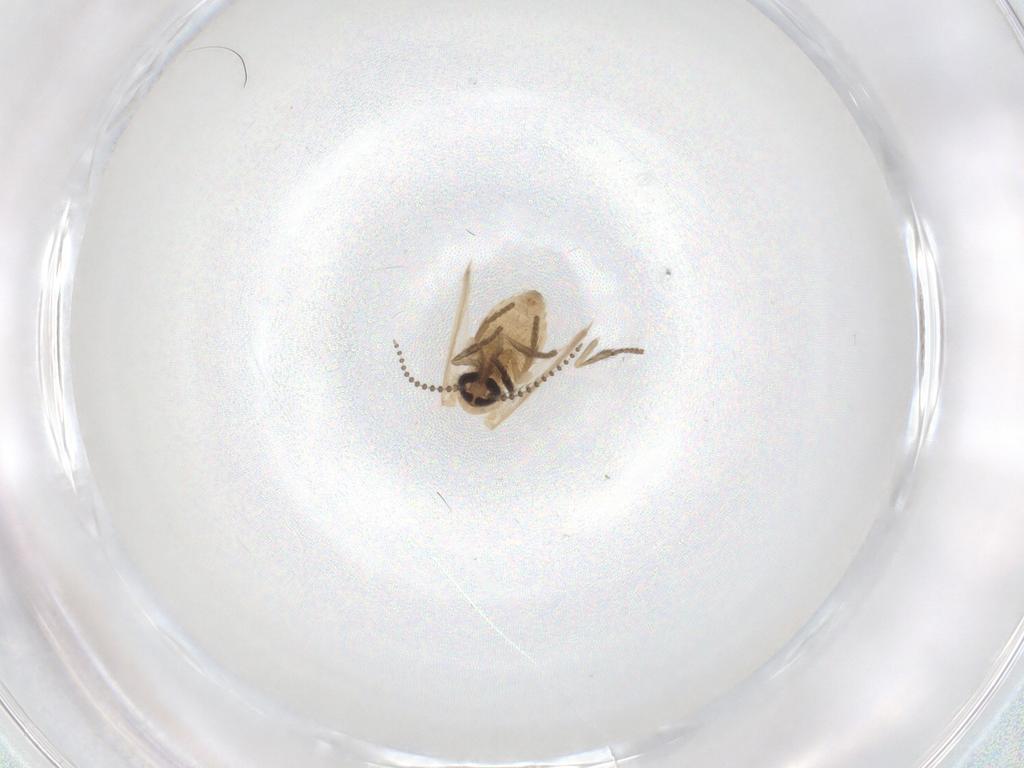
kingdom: Animalia
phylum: Arthropoda
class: Insecta
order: Diptera
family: Psychodidae
